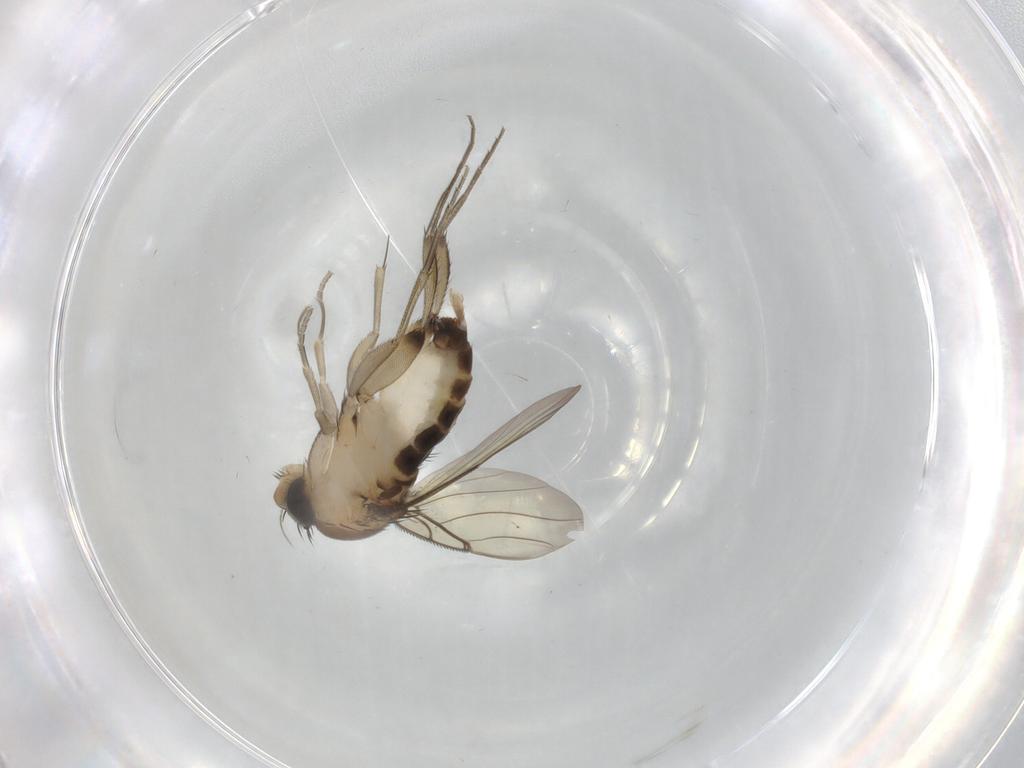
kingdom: Animalia
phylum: Arthropoda
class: Insecta
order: Diptera
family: Phoridae
